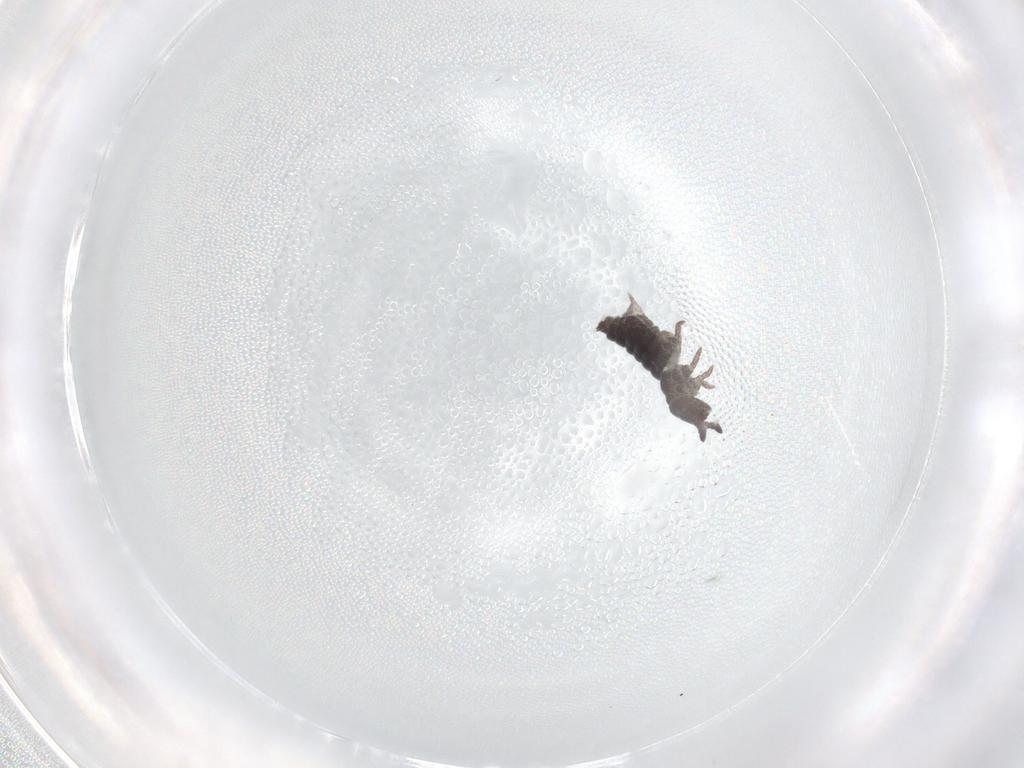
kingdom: Animalia
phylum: Arthropoda
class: Collembola
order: Poduromorpha
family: Hypogastruridae
